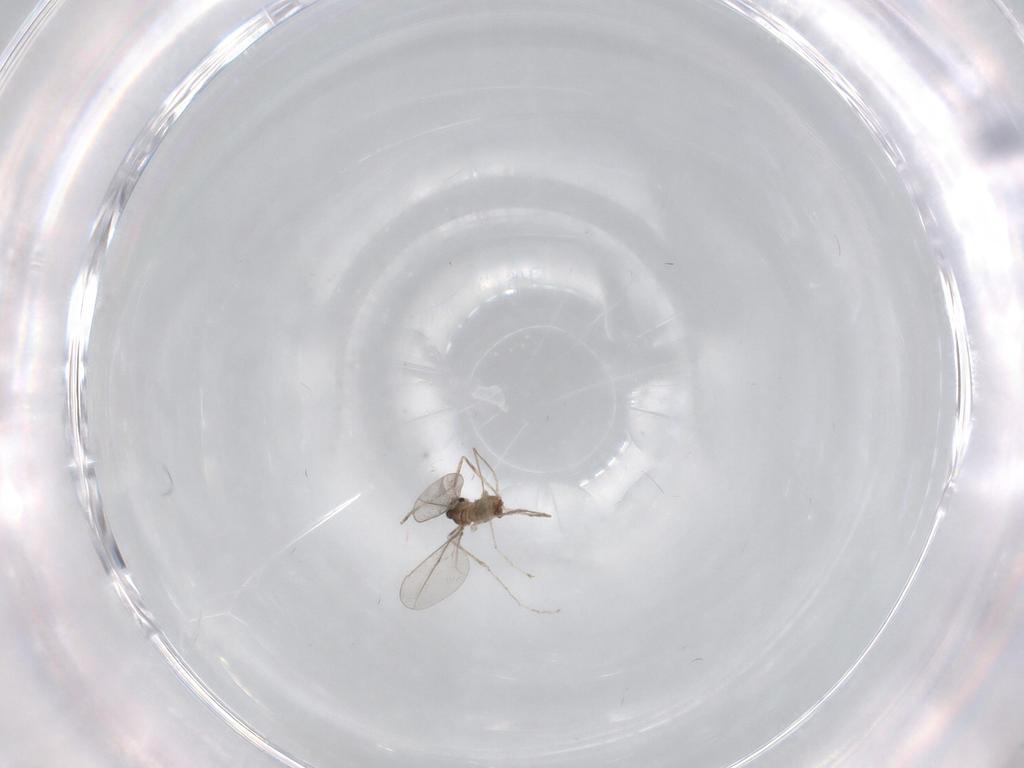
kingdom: Animalia
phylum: Arthropoda
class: Insecta
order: Diptera
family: Cecidomyiidae
